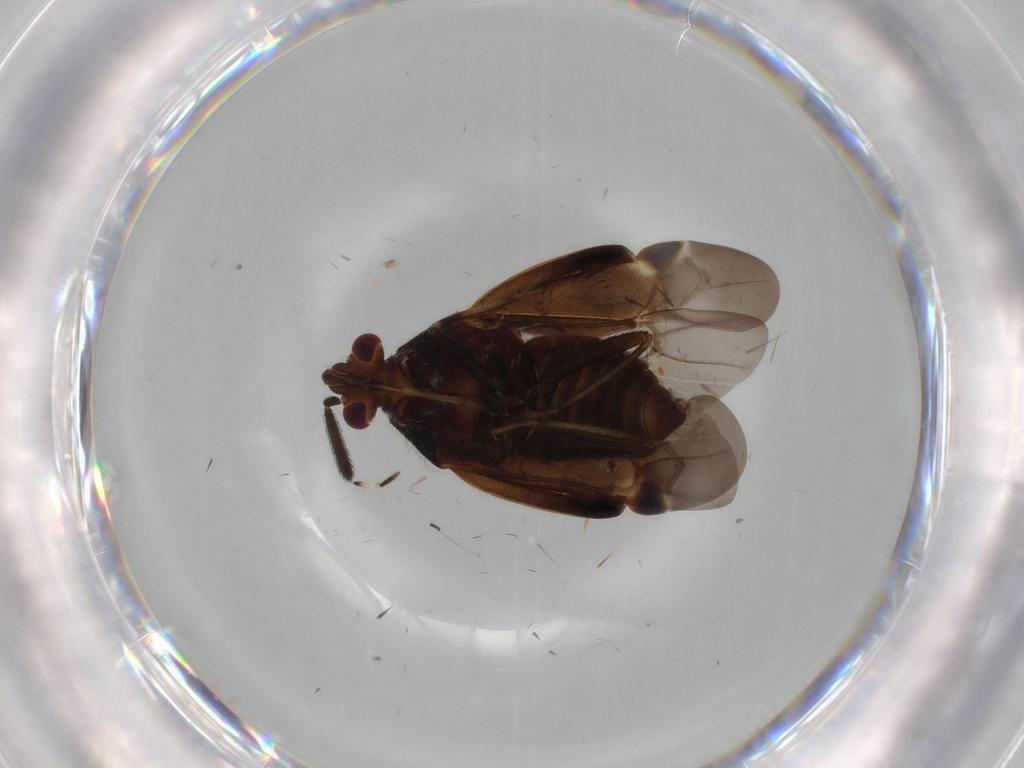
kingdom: Animalia
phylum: Arthropoda
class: Insecta
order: Hemiptera
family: Miridae
